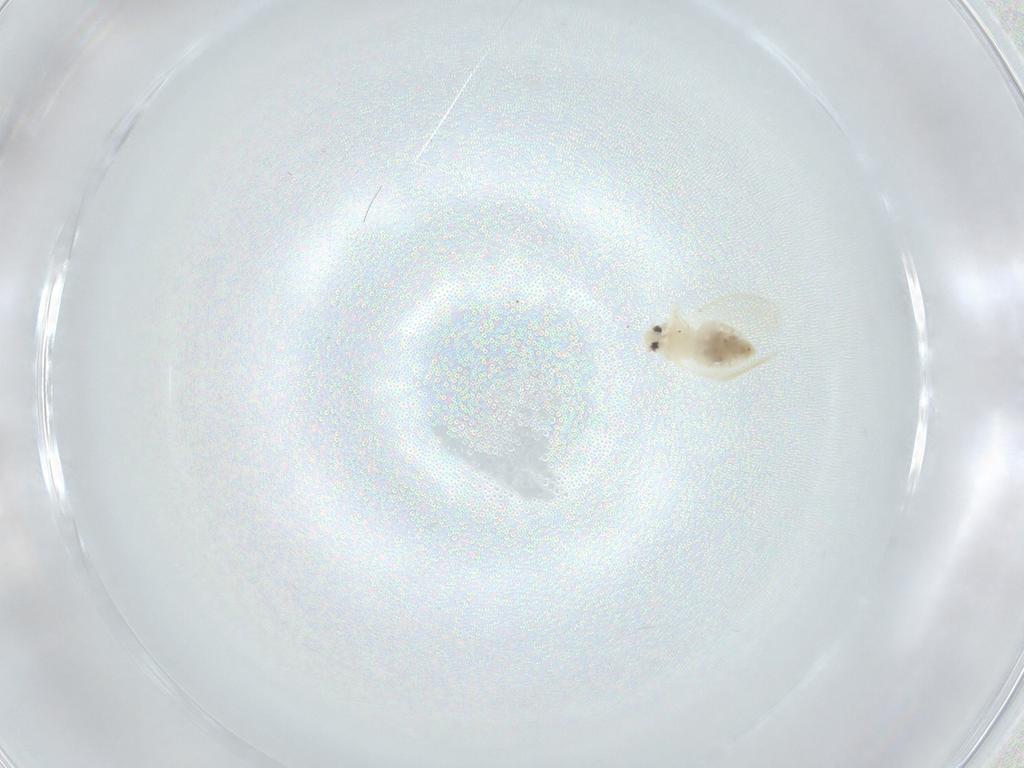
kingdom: Animalia
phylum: Arthropoda
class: Insecta
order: Hemiptera
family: Aleyrodidae
